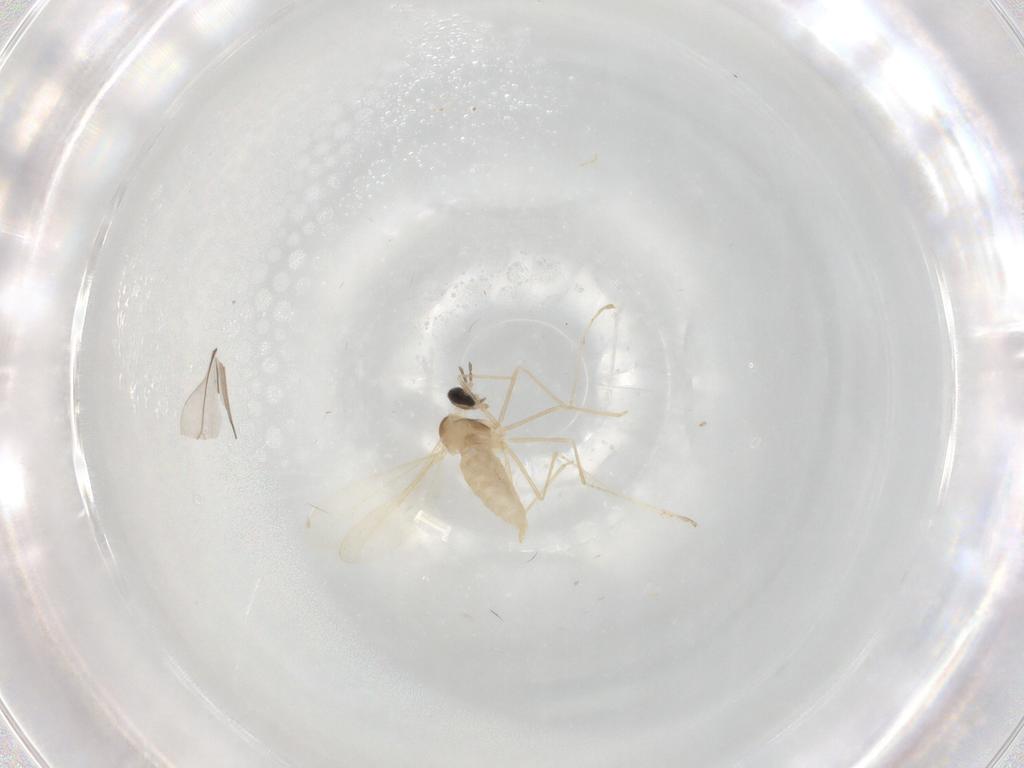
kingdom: Animalia
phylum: Arthropoda
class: Insecta
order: Diptera
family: Cecidomyiidae
